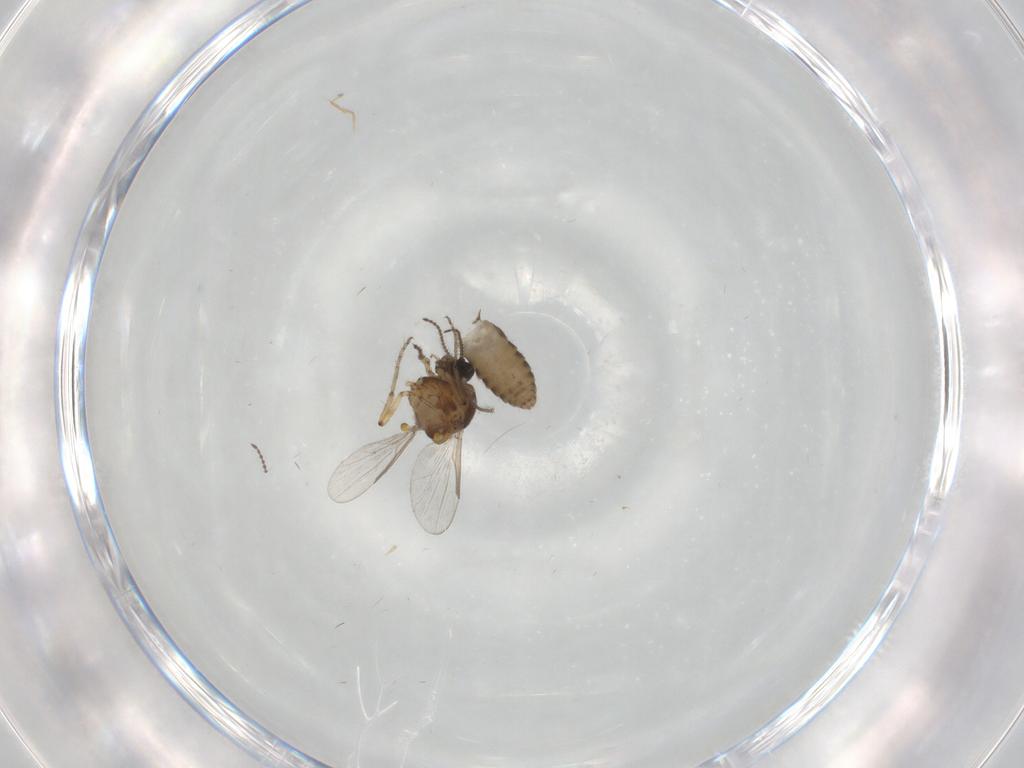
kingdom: Animalia
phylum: Arthropoda
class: Insecta
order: Diptera
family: Ceratopogonidae
